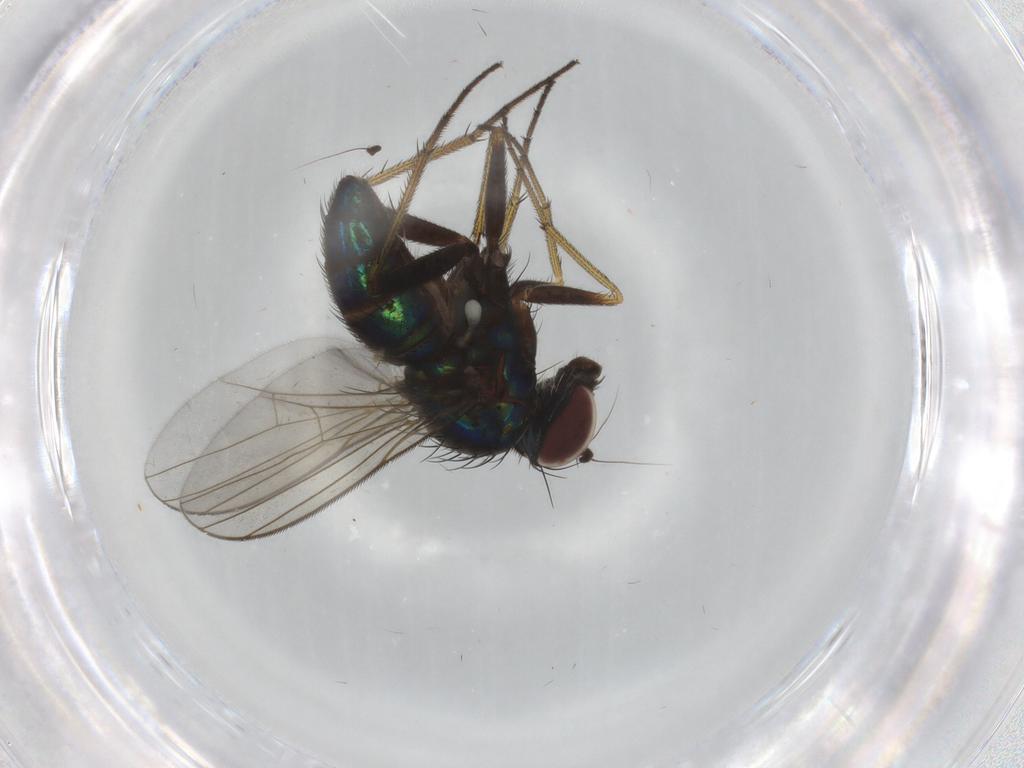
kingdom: Animalia
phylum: Arthropoda
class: Insecta
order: Diptera
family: Dolichopodidae
